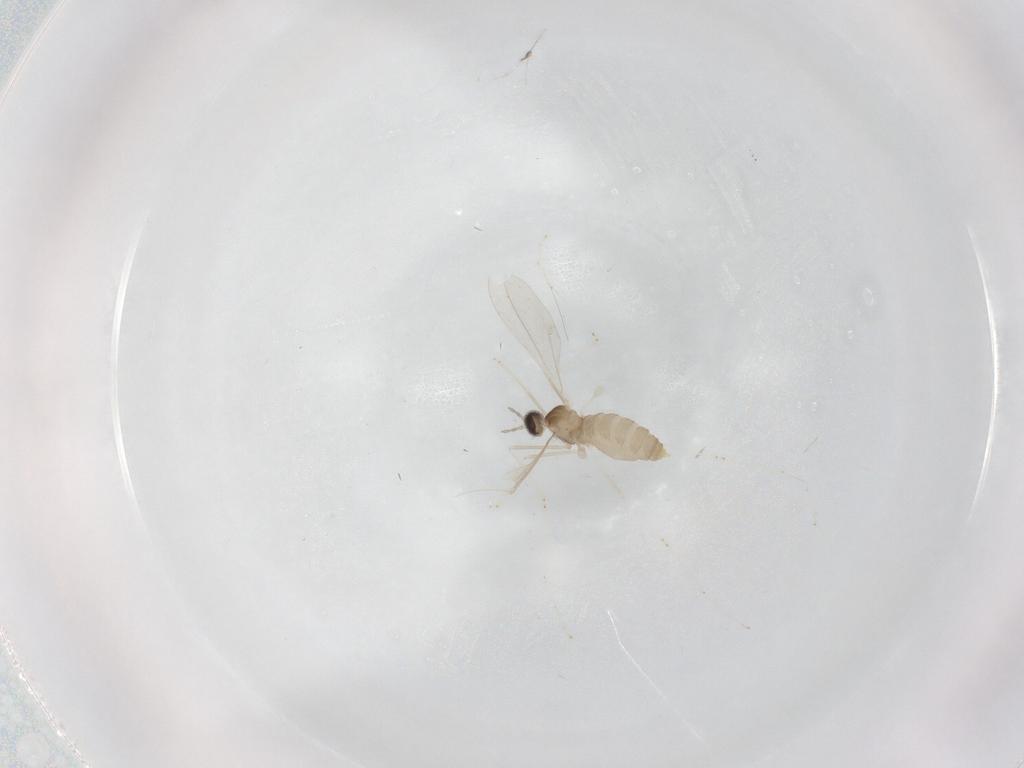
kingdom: Animalia
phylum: Arthropoda
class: Insecta
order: Diptera
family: Cecidomyiidae
